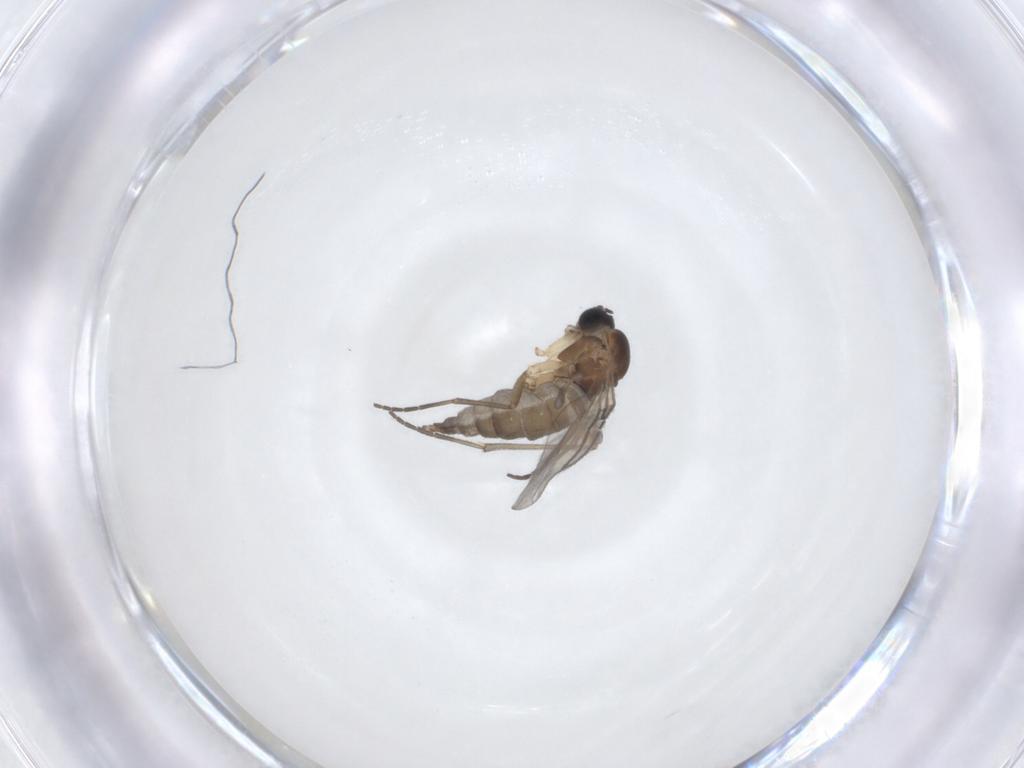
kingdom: Animalia
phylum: Arthropoda
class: Insecta
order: Diptera
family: Sciaridae
